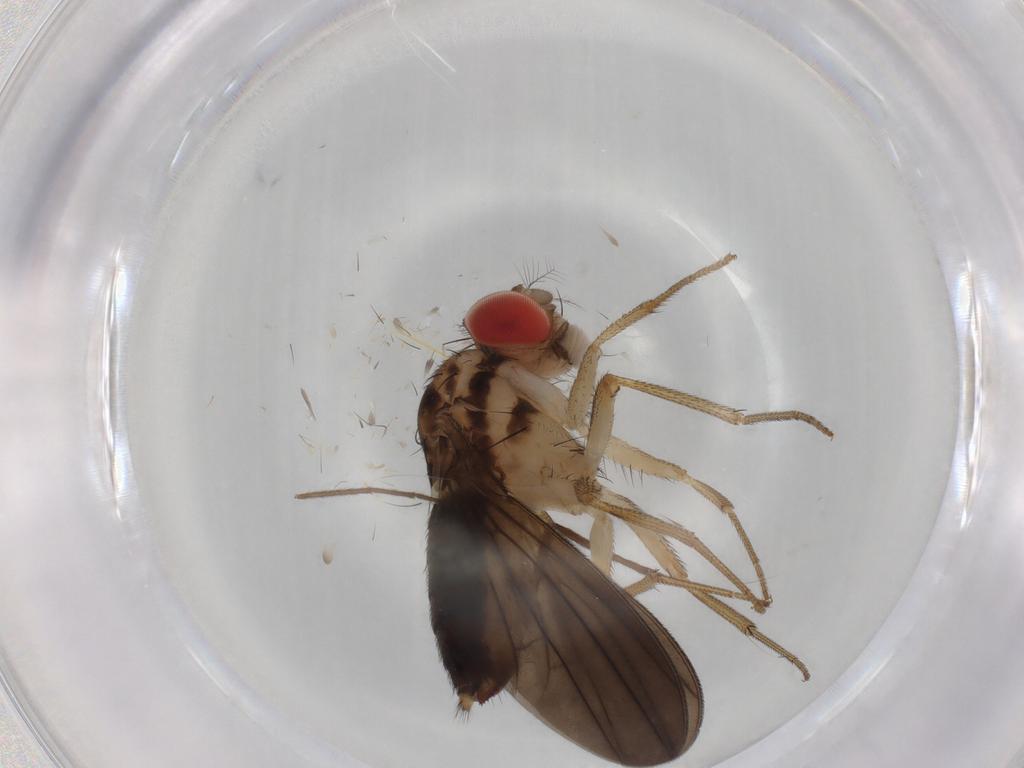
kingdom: Animalia
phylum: Arthropoda
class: Insecta
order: Diptera
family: Drosophilidae
